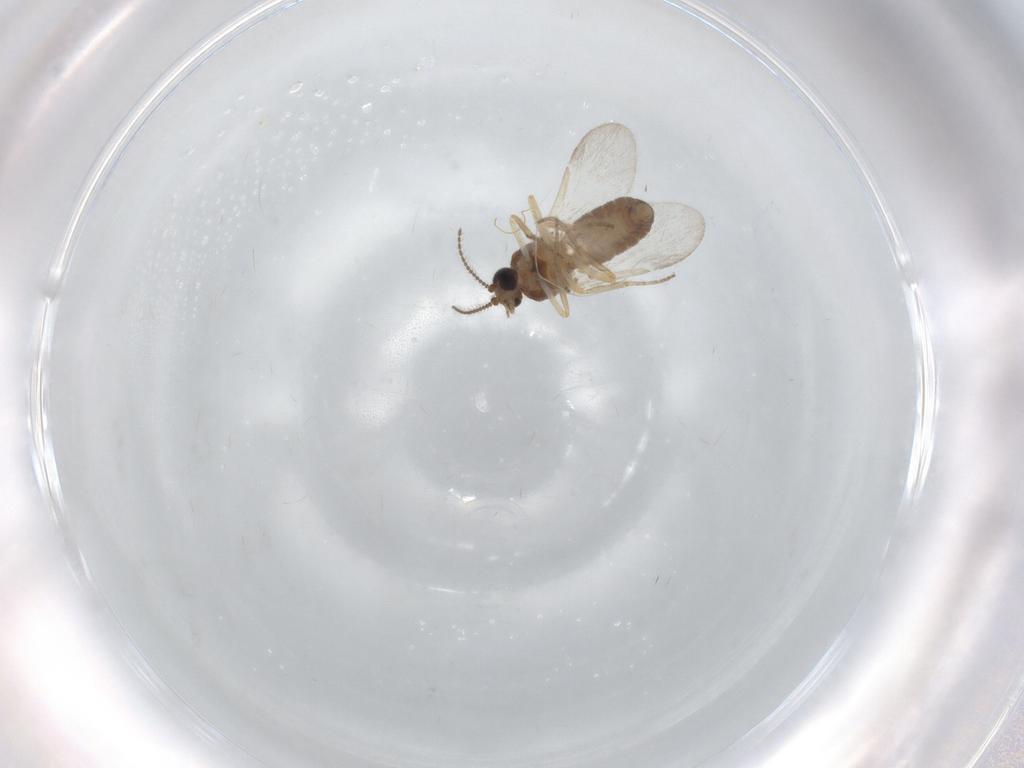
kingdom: Animalia
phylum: Arthropoda
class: Insecta
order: Diptera
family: Ceratopogonidae
